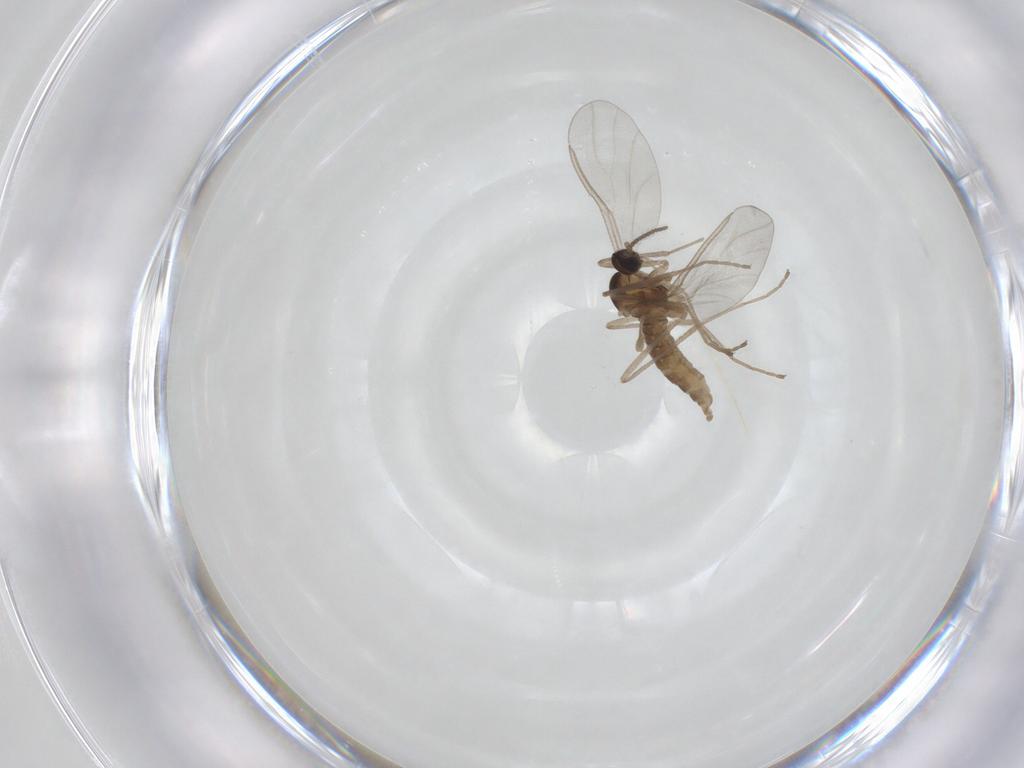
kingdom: Animalia
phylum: Arthropoda
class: Insecta
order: Diptera
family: Cecidomyiidae
